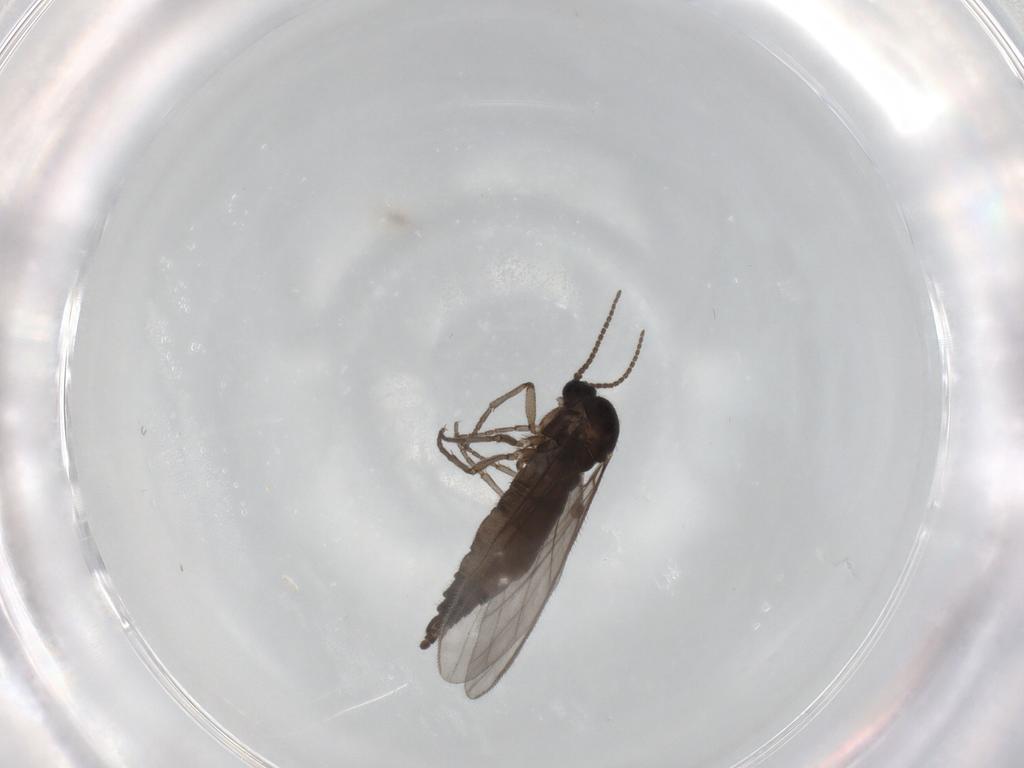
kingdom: Animalia
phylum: Arthropoda
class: Insecta
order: Diptera
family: Sciaridae
